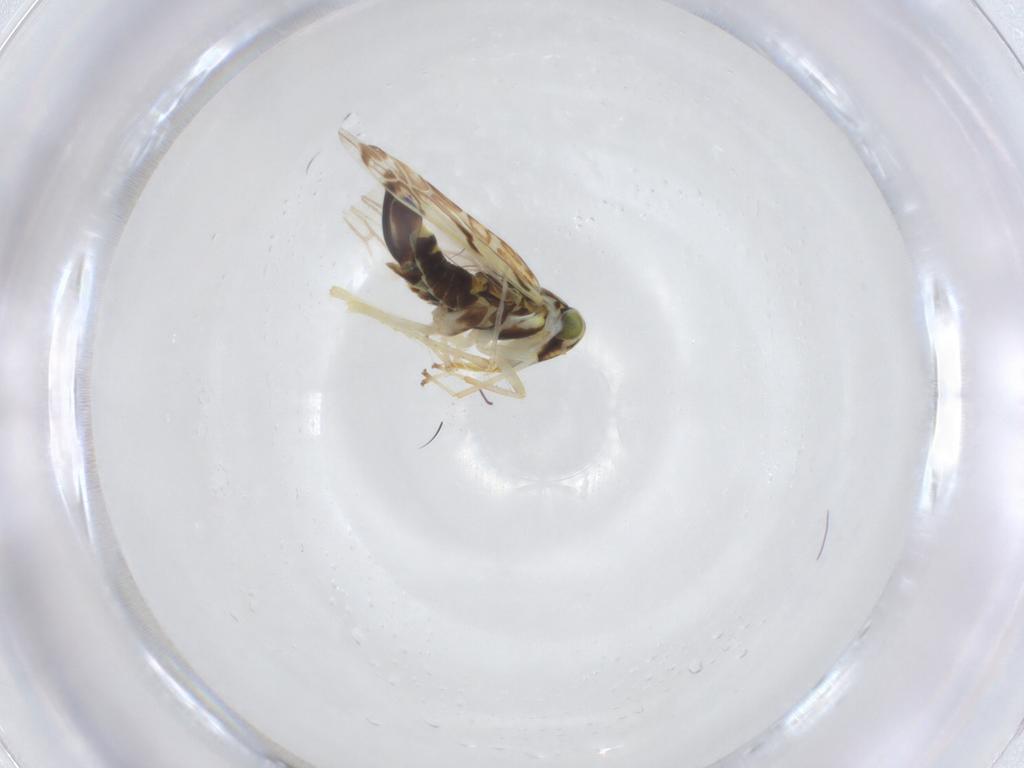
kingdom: Animalia
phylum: Arthropoda
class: Insecta
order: Hemiptera
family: Cicadellidae
